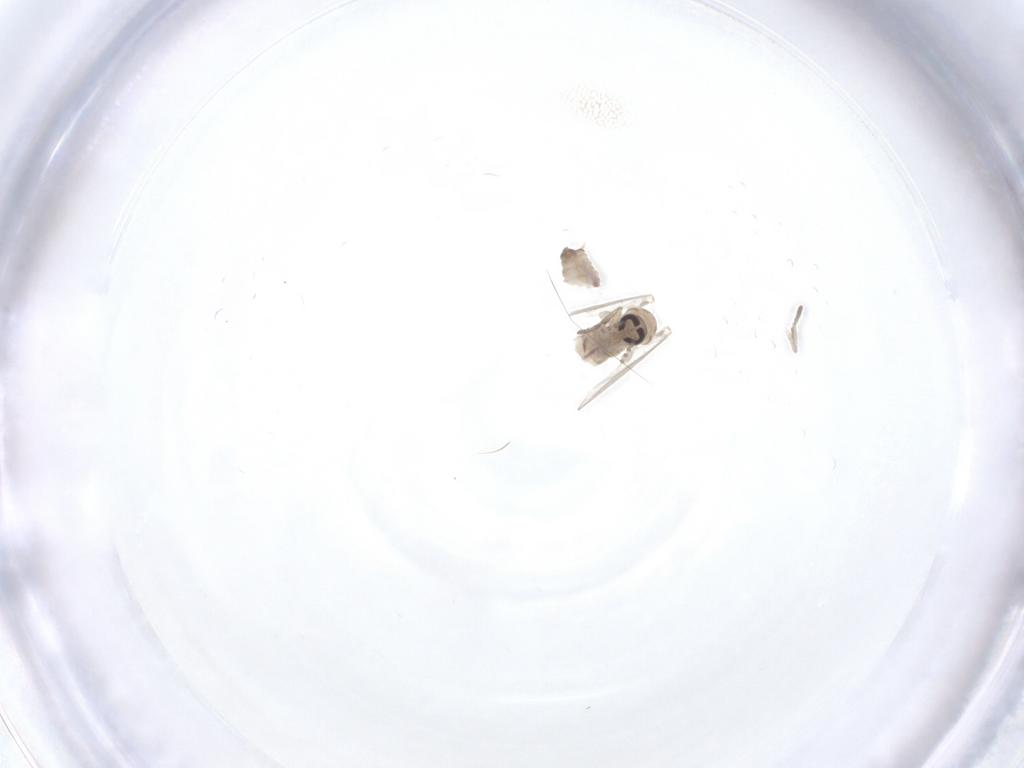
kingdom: Animalia
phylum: Arthropoda
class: Insecta
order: Diptera
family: Psychodidae
